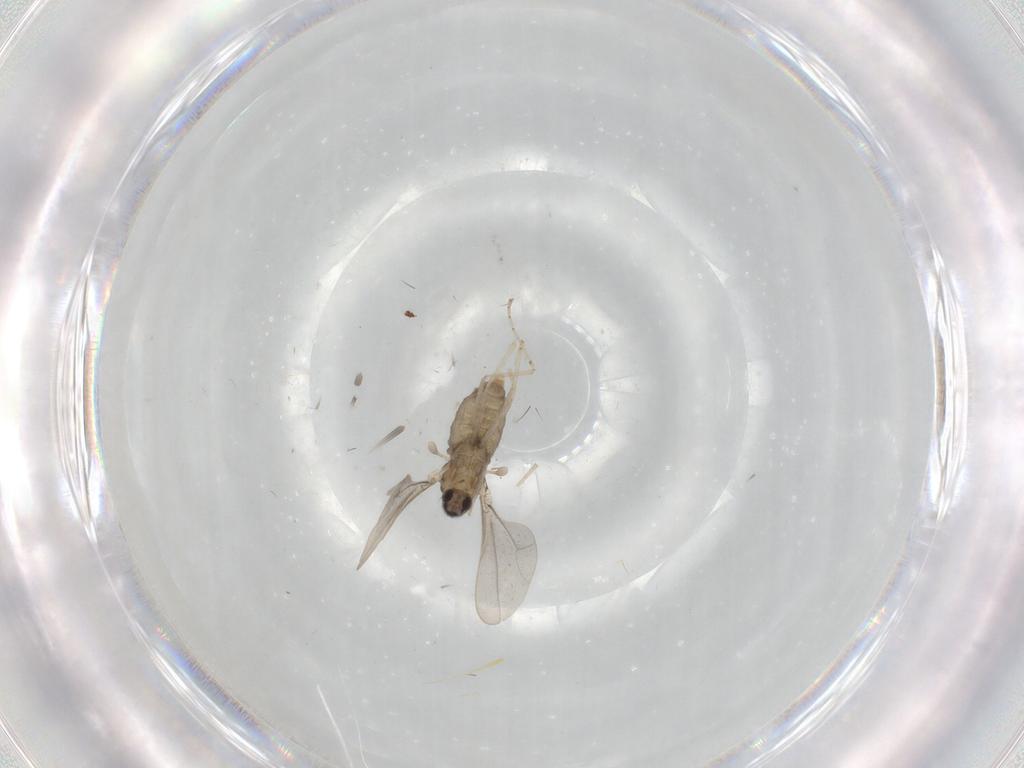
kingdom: Animalia
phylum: Arthropoda
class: Insecta
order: Diptera
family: Psychodidae
